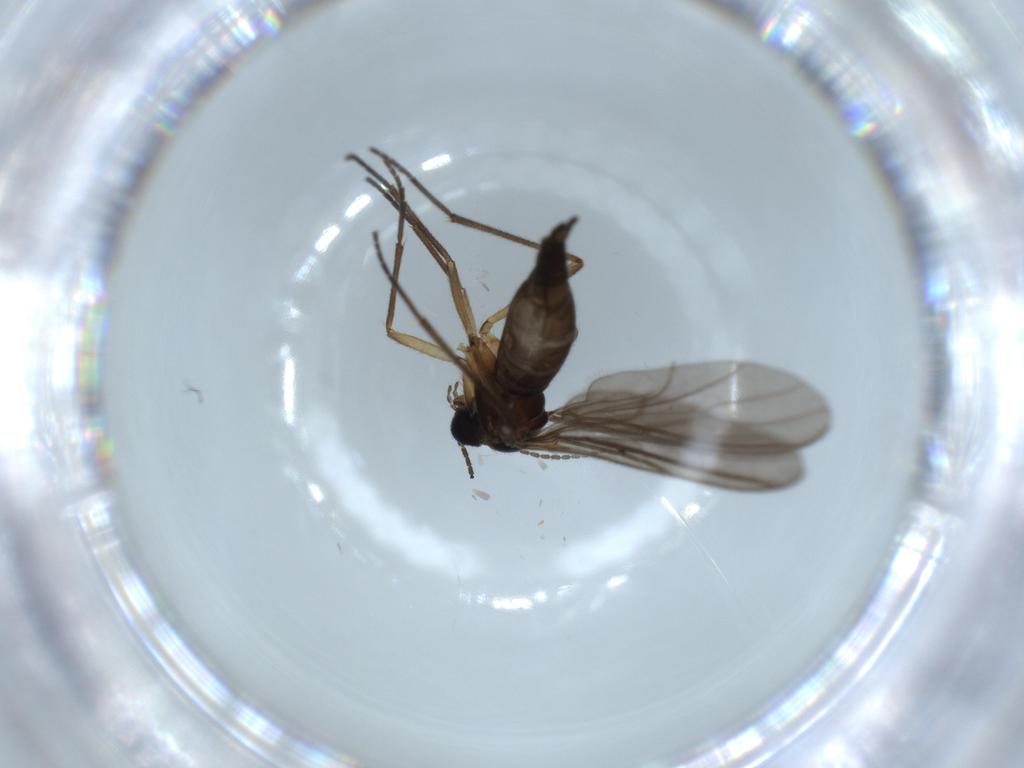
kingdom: Animalia
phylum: Arthropoda
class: Insecta
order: Diptera
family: Sciaridae
